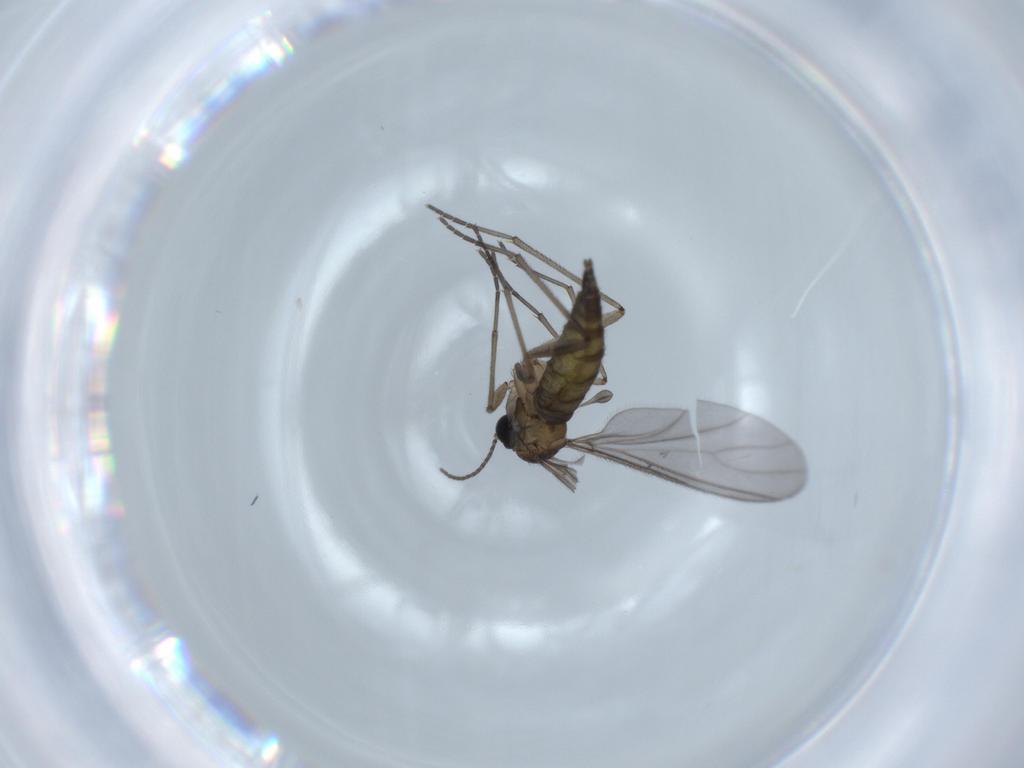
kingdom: Animalia
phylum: Arthropoda
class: Insecta
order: Diptera
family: Sciaridae
